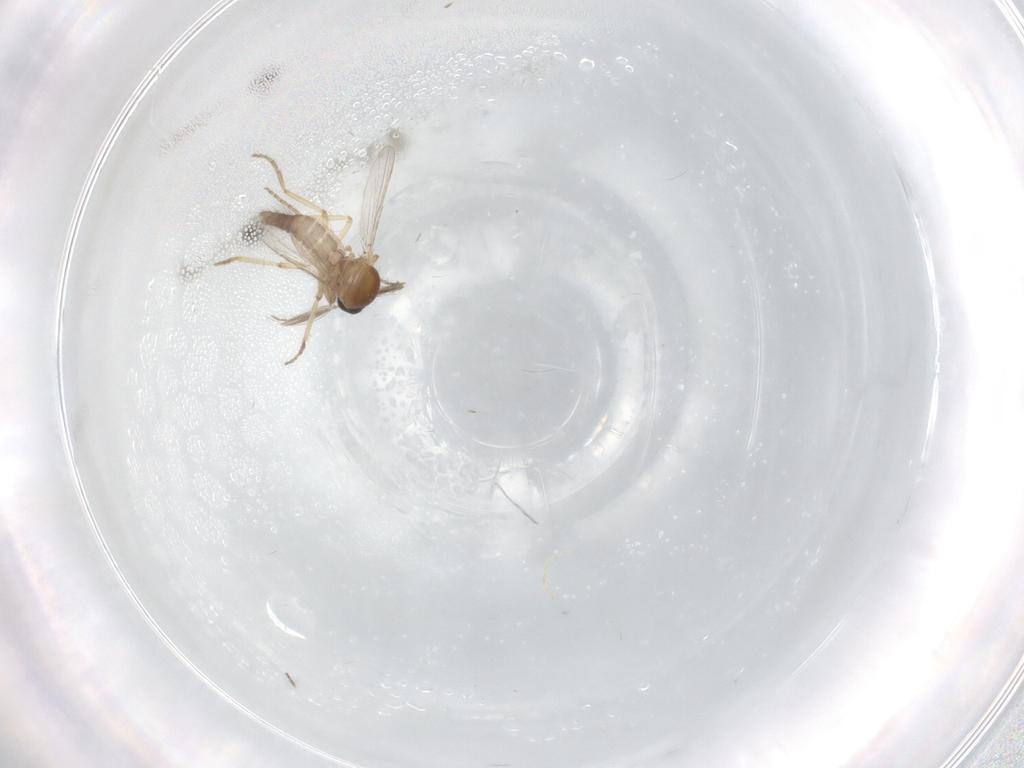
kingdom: Animalia
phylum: Arthropoda
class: Insecta
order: Diptera
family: Ceratopogonidae
